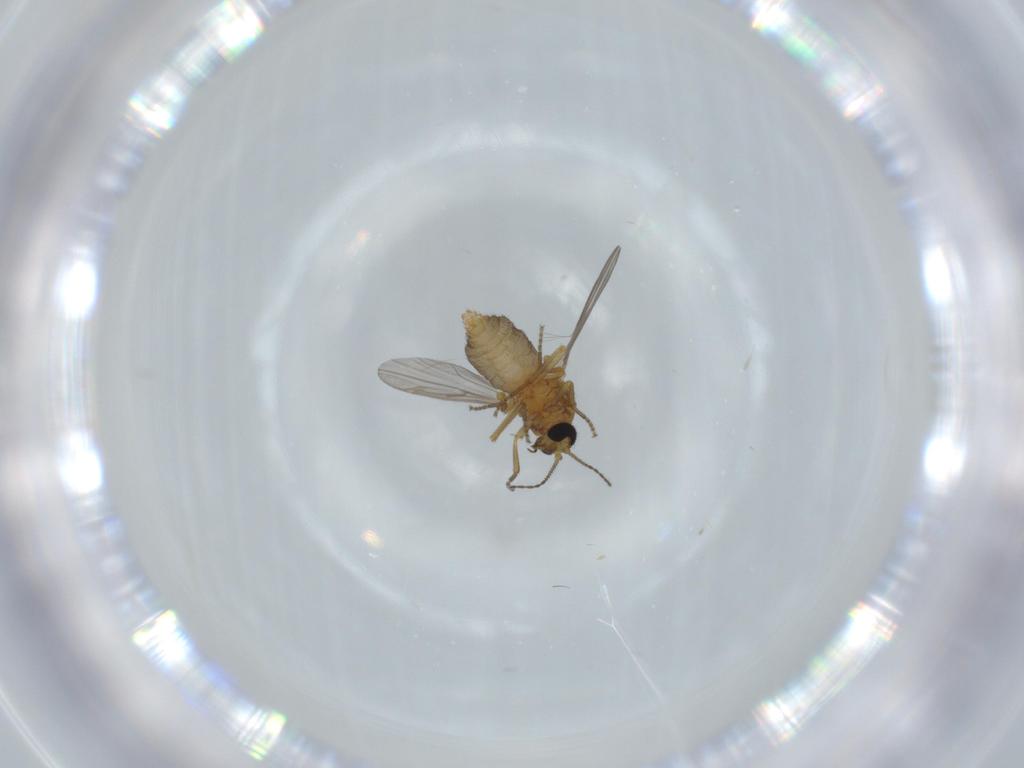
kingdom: Animalia
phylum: Arthropoda
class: Insecta
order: Diptera
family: Ceratopogonidae
